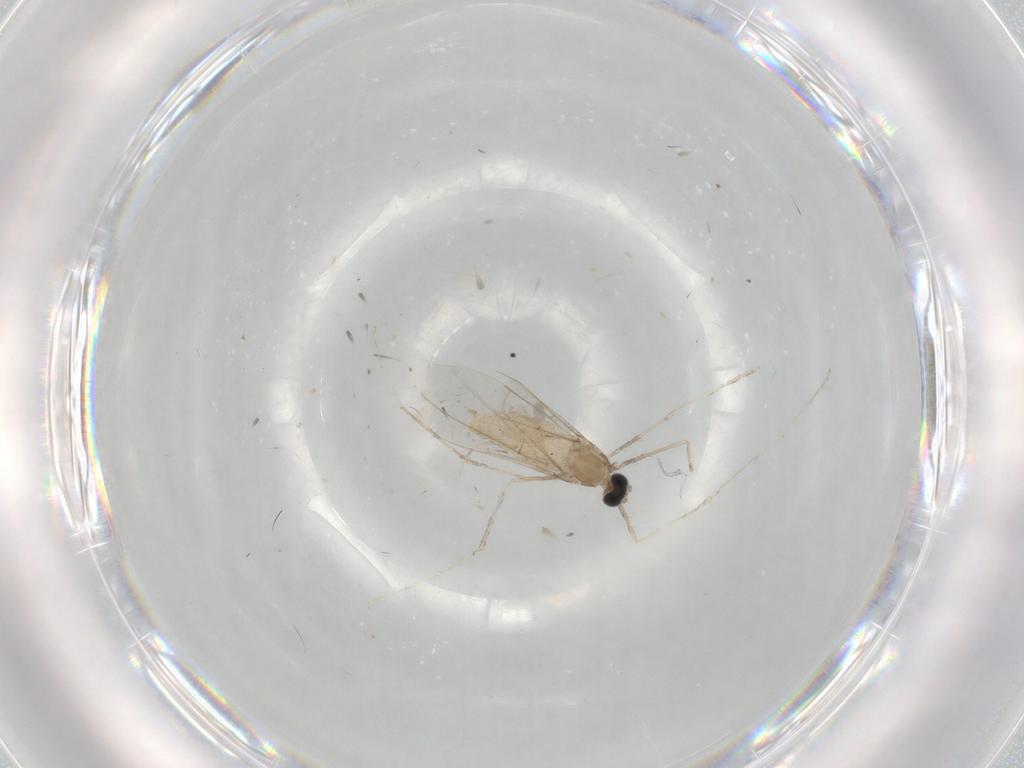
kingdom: Animalia
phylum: Arthropoda
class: Insecta
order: Diptera
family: Cecidomyiidae
